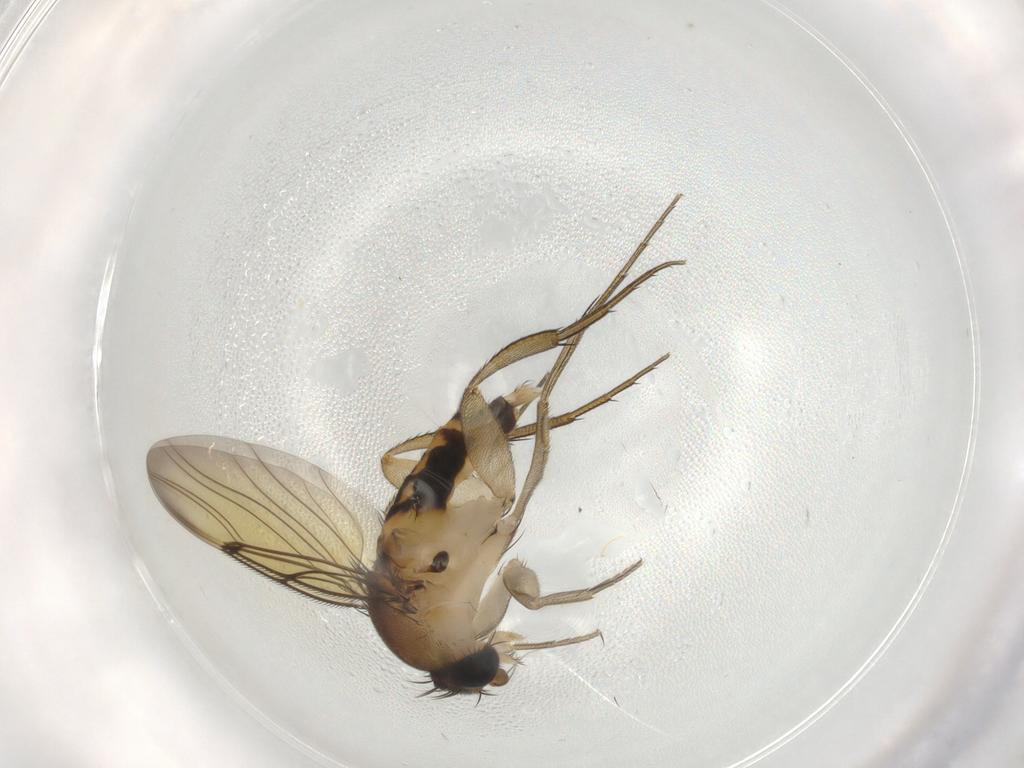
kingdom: Animalia
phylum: Arthropoda
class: Insecta
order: Diptera
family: Phoridae
